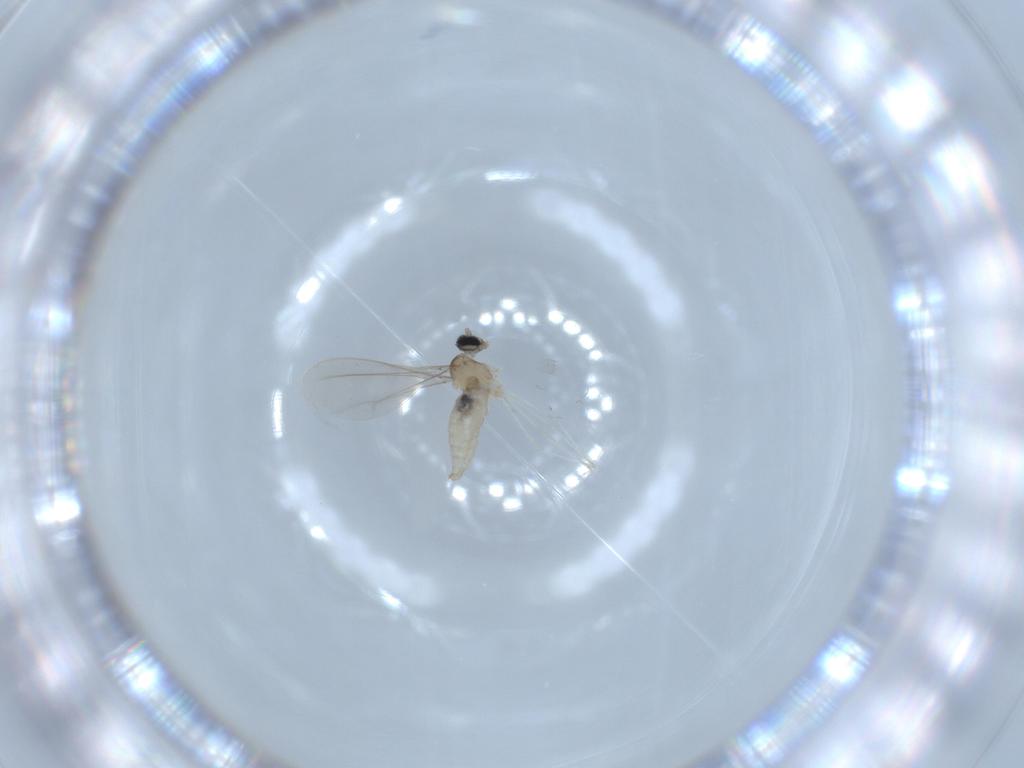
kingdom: Animalia
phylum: Arthropoda
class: Insecta
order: Diptera
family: Cecidomyiidae
